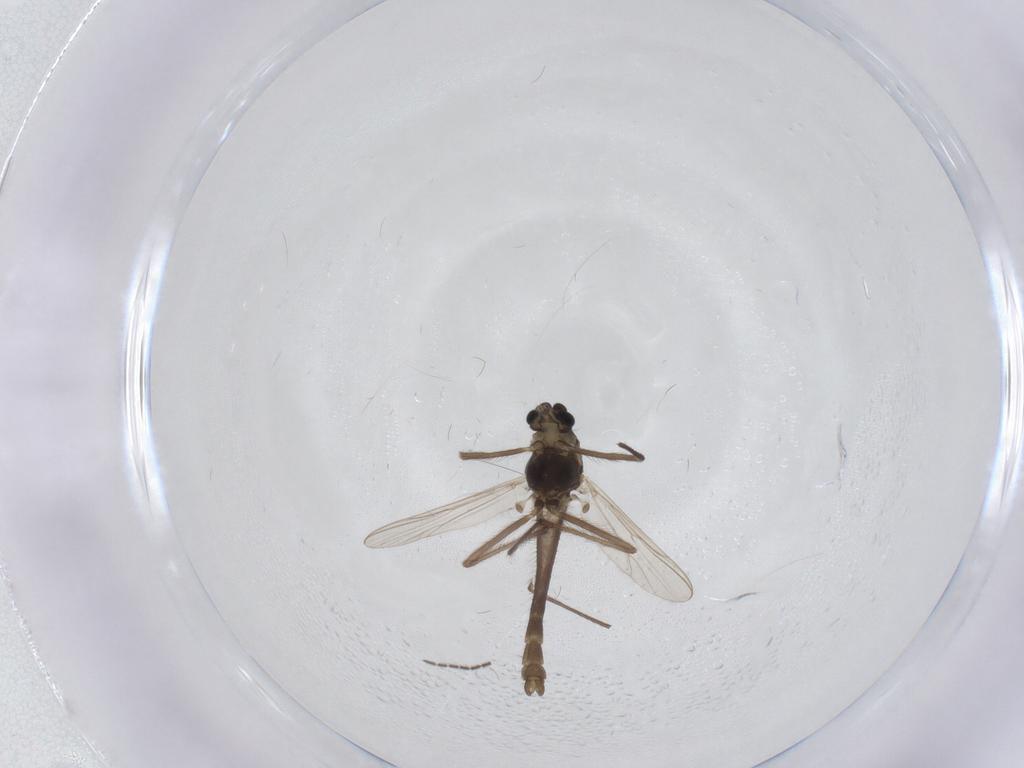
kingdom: Animalia
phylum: Arthropoda
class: Insecta
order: Diptera
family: Chironomidae
